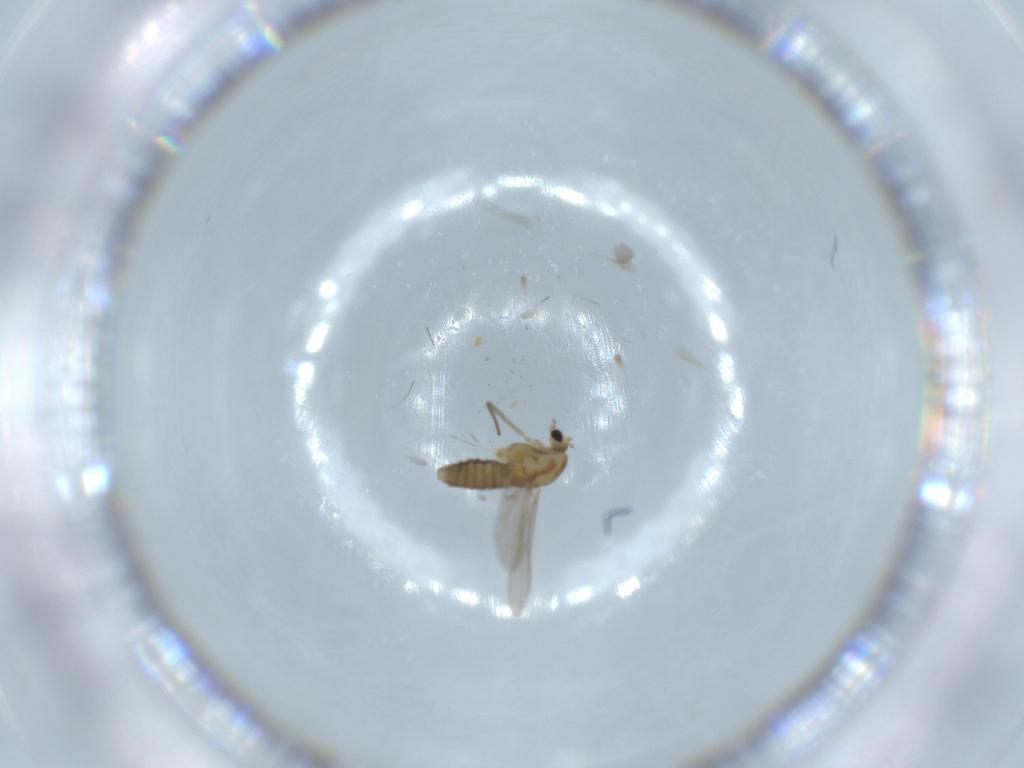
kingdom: Animalia
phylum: Arthropoda
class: Insecta
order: Diptera
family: Chironomidae
